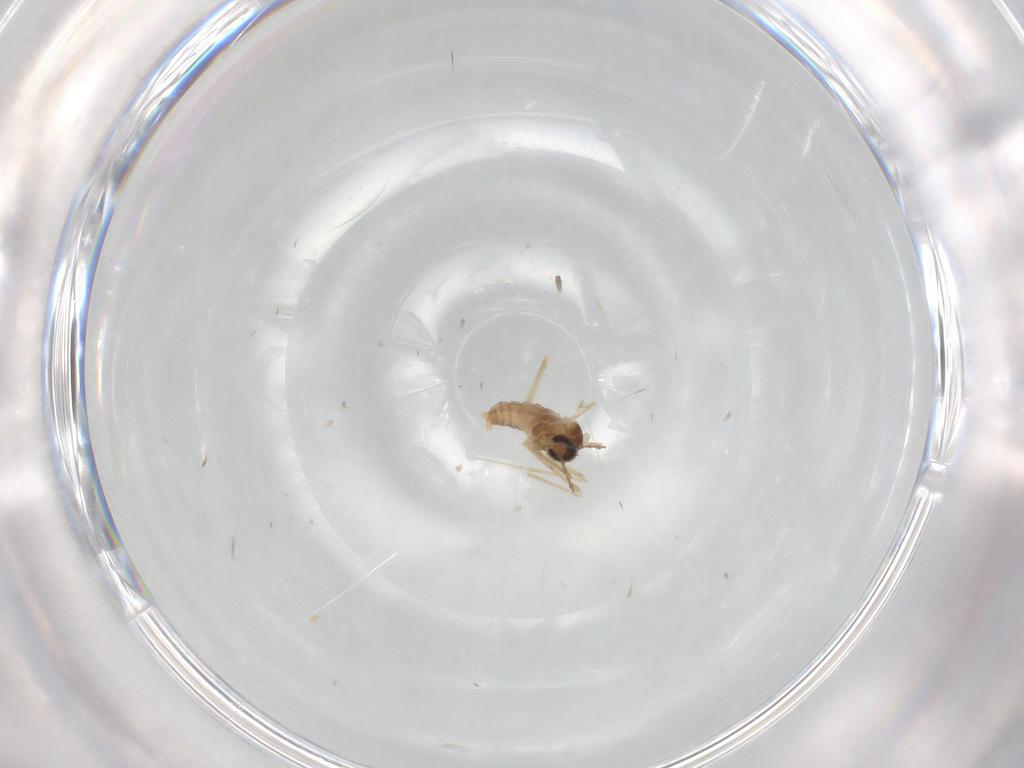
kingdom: Animalia
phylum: Arthropoda
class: Insecta
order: Diptera
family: Cecidomyiidae
